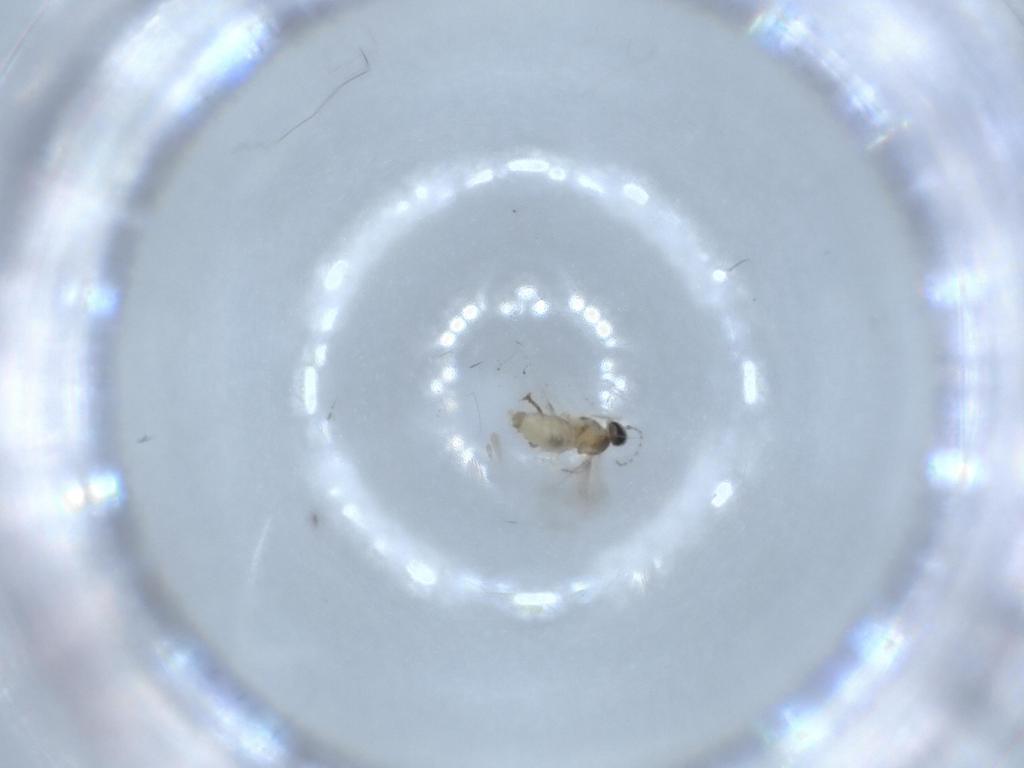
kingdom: Animalia
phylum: Arthropoda
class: Insecta
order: Diptera
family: Cecidomyiidae
